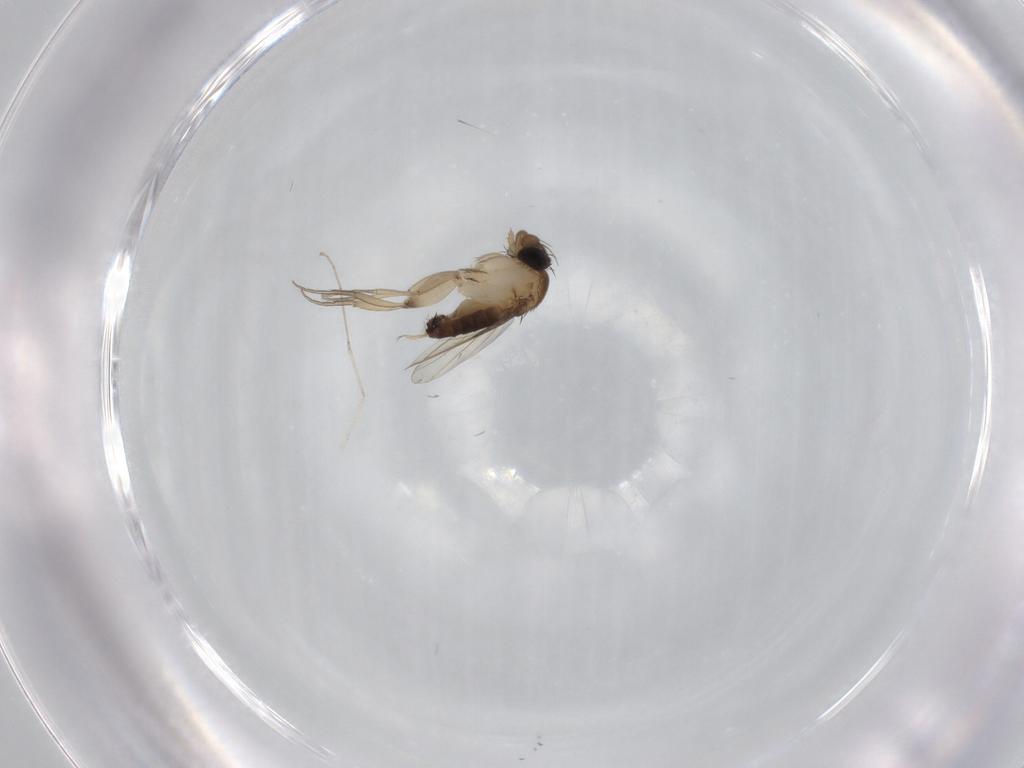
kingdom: Animalia
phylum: Arthropoda
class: Insecta
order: Diptera
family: Phoridae
